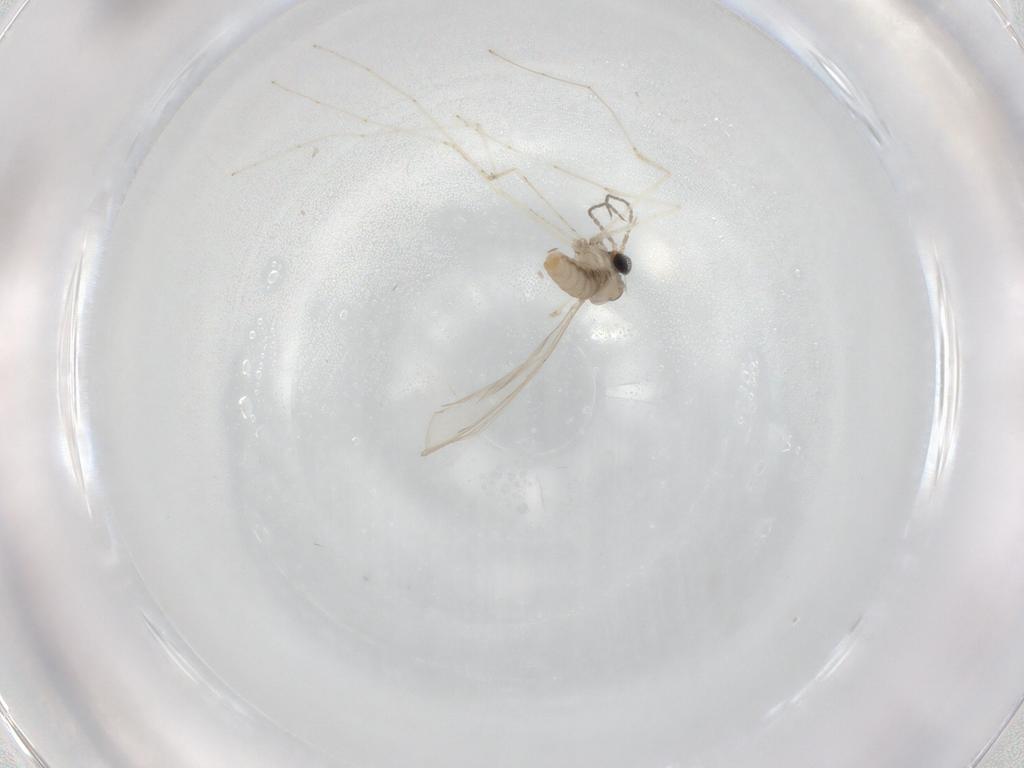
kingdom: Animalia
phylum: Arthropoda
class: Insecta
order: Diptera
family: Cecidomyiidae
